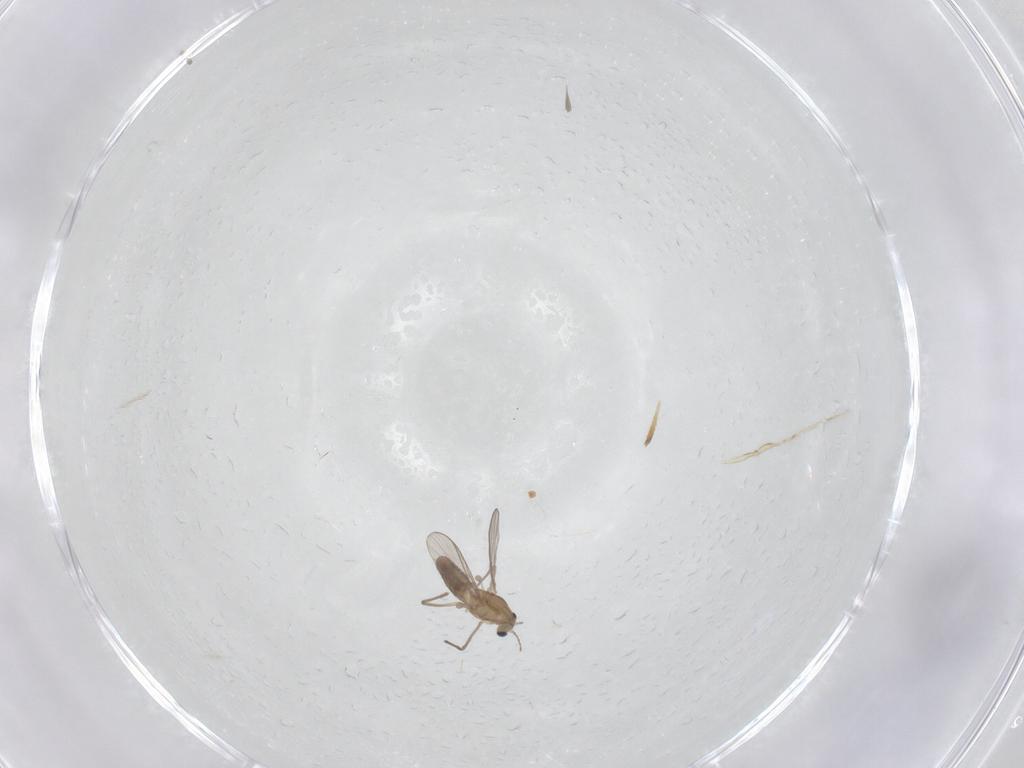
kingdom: Animalia
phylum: Arthropoda
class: Insecta
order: Diptera
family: Chironomidae
